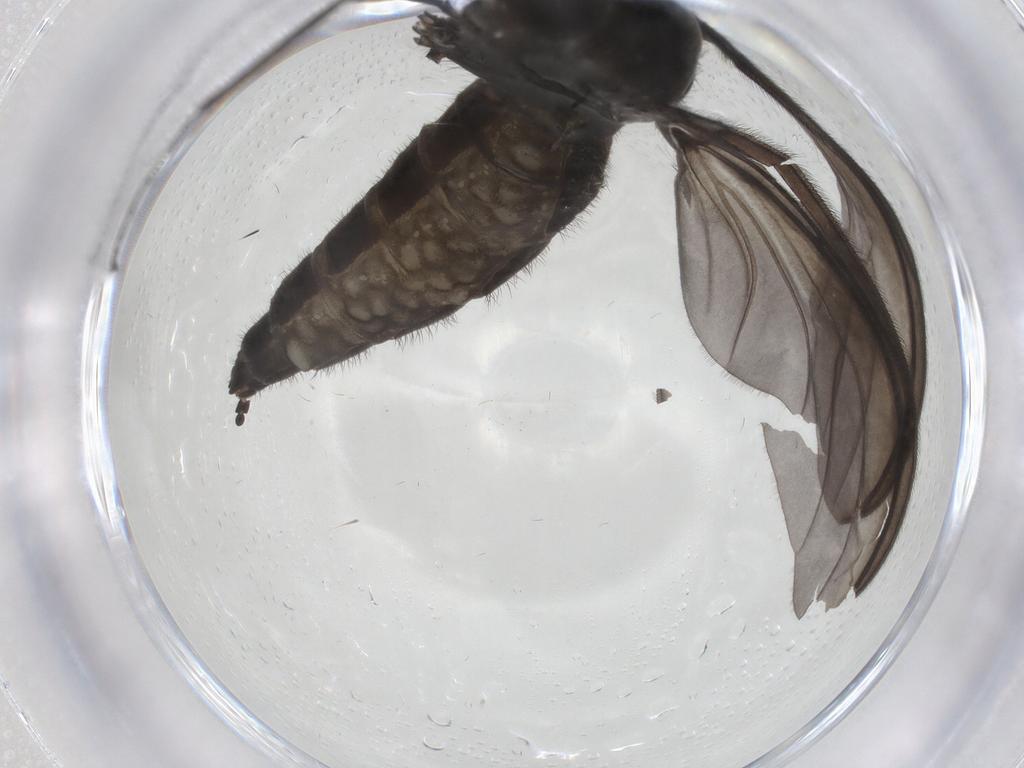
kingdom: Animalia
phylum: Arthropoda
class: Insecta
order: Diptera
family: Sciaridae
